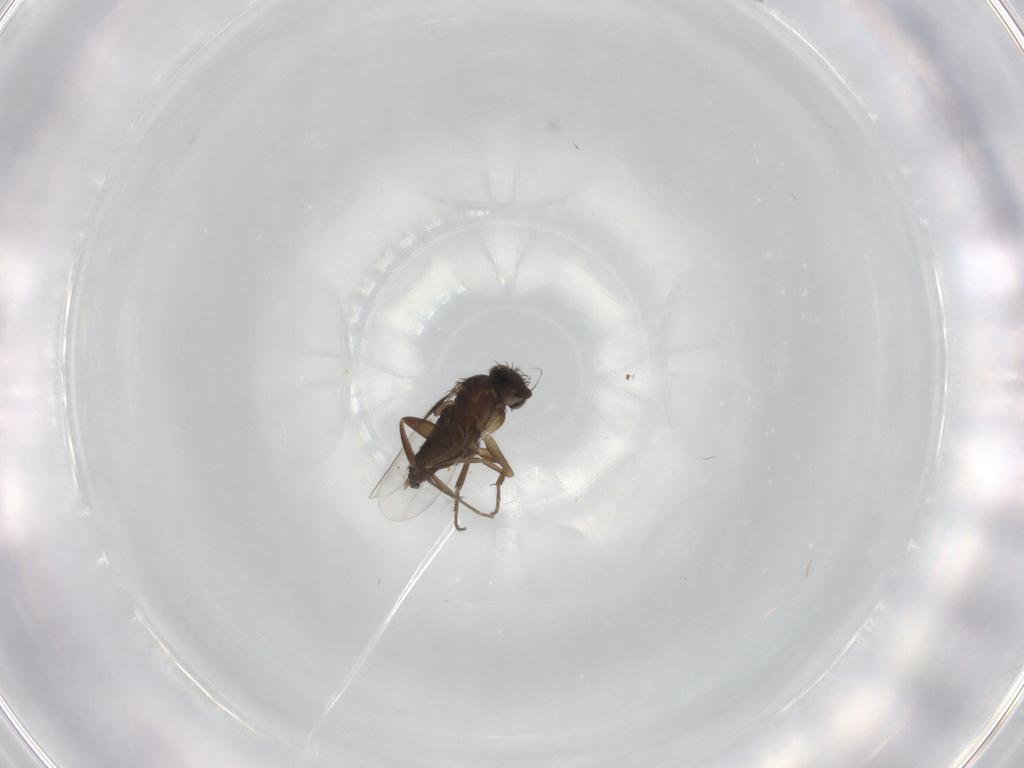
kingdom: Animalia
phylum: Arthropoda
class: Insecta
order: Diptera
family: Phoridae
